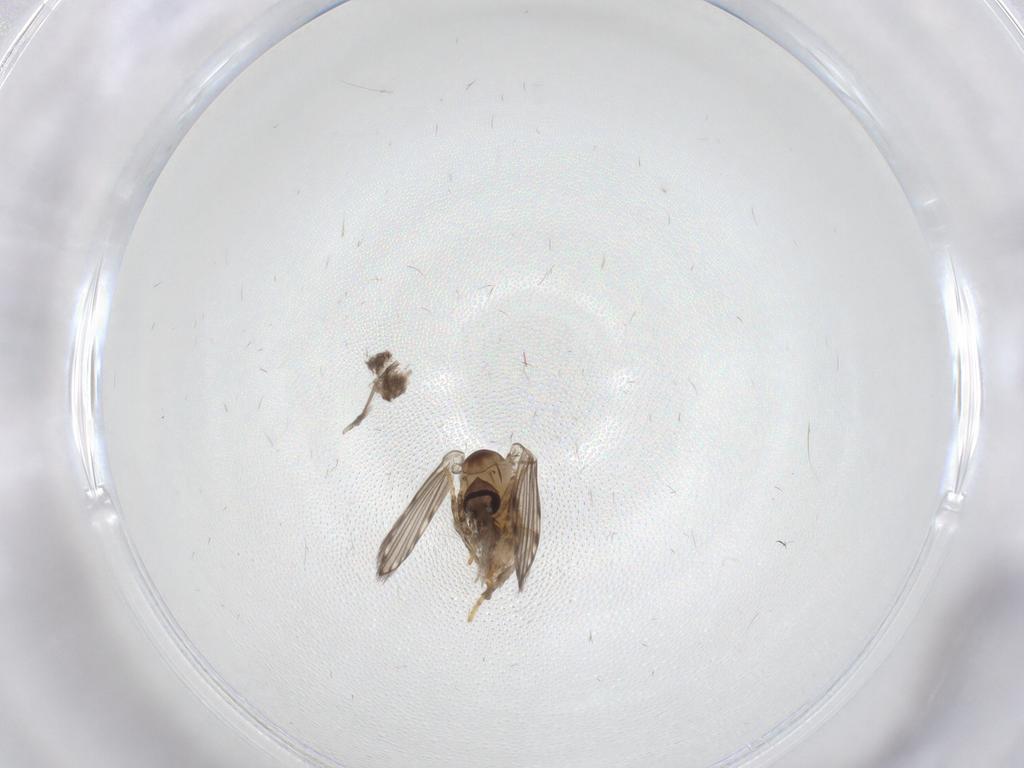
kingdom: Animalia
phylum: Arthropoda
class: Insecta
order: Diptera
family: Psychodidae
